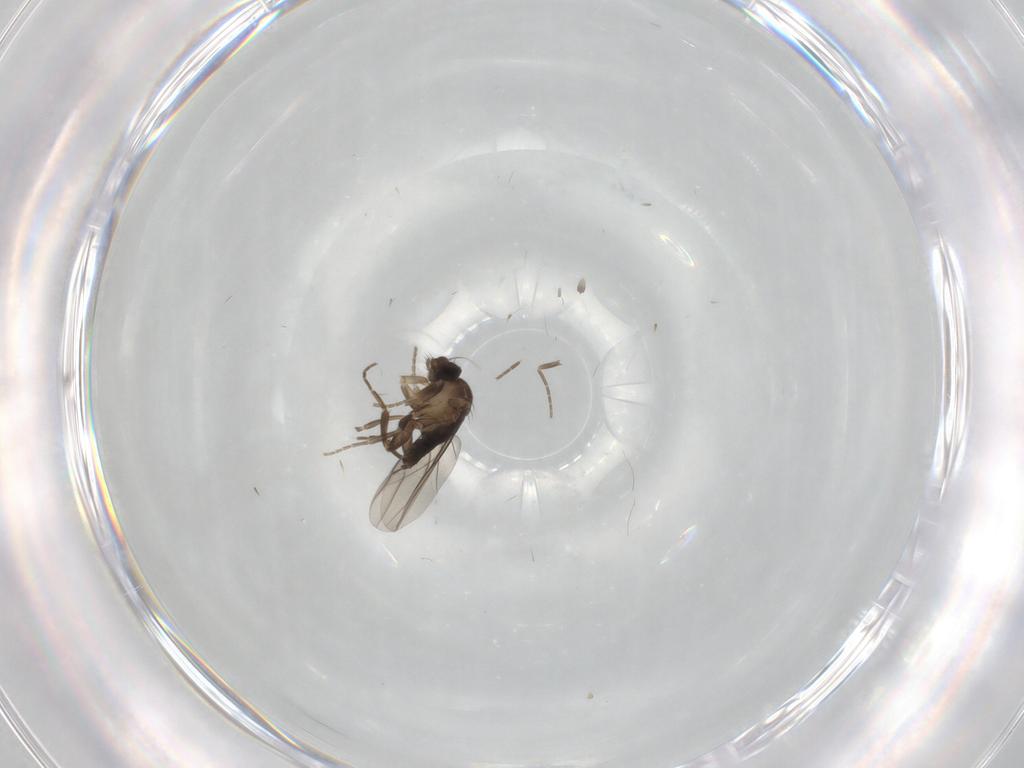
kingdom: Animalia
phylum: Arthropoda
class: Insecta
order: Diptera
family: Phoridae
